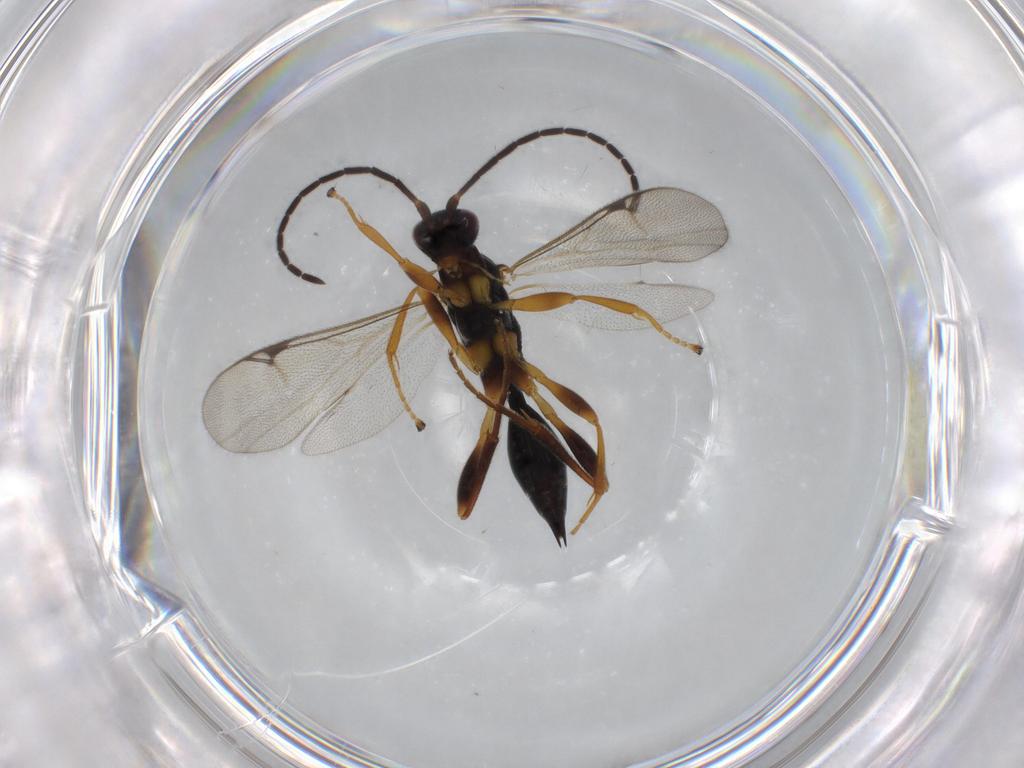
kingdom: Animalia
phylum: Arthropoda
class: Insecta
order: Hymenoptera
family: Proctotrupidae
